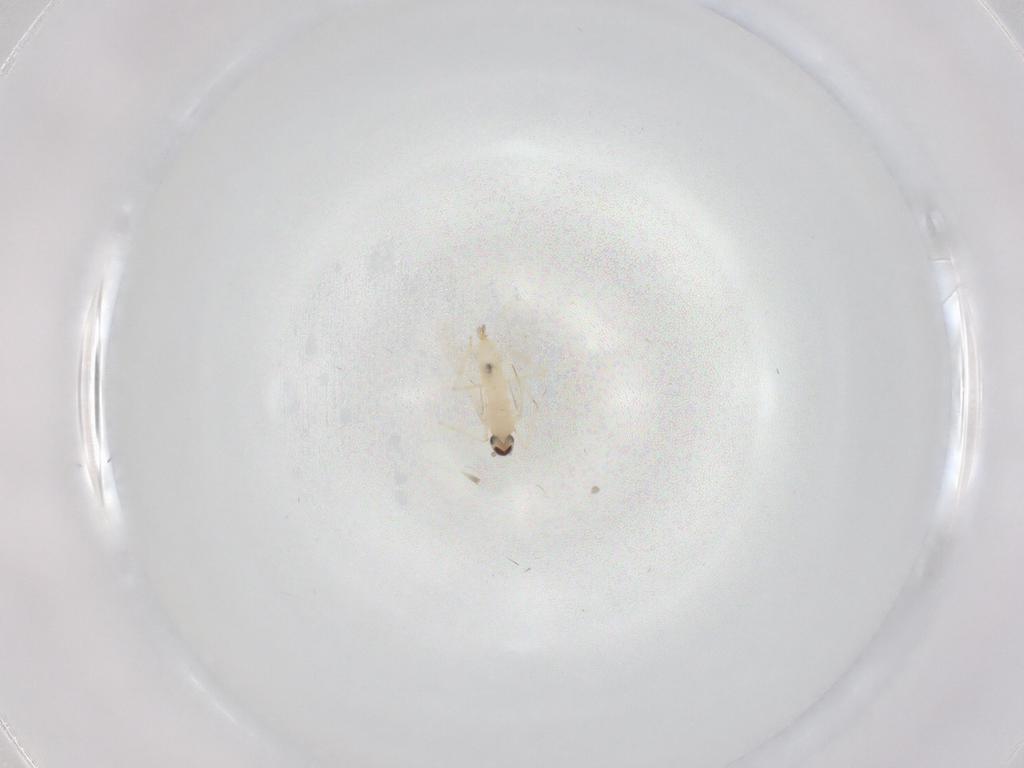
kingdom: Animalia
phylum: Arthropoda
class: Insecta
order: Diptera
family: Cecidomyiidae
